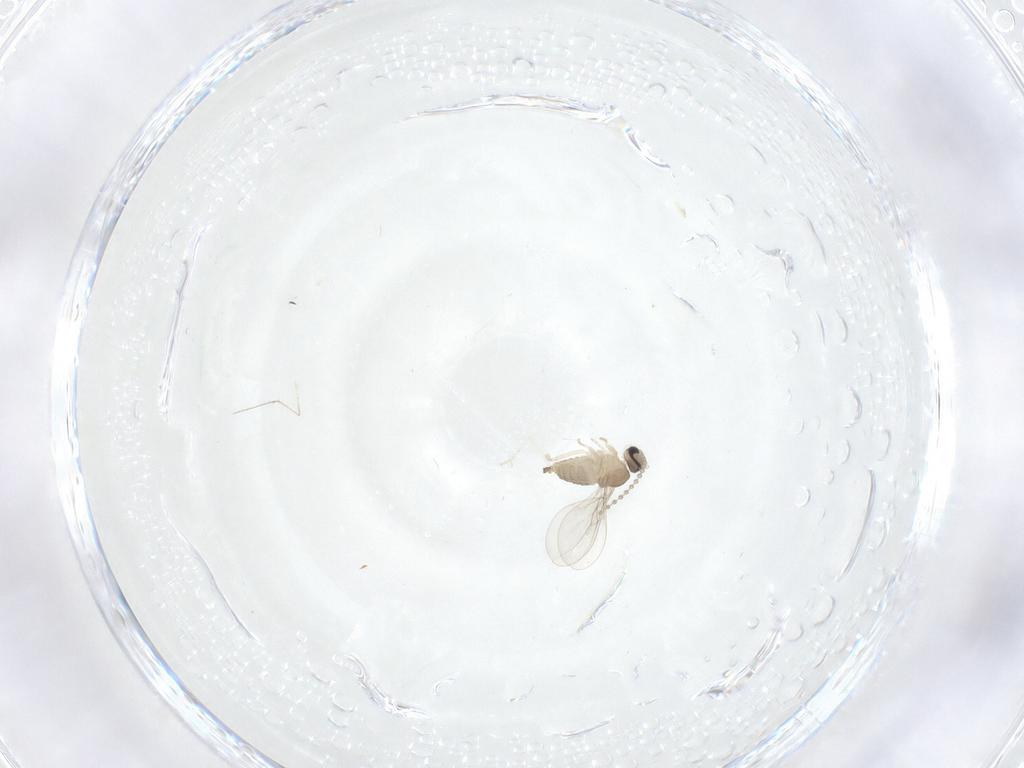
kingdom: Animalia
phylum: Arthropoda
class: Insecta
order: Diptera
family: Cecidomyiidae
